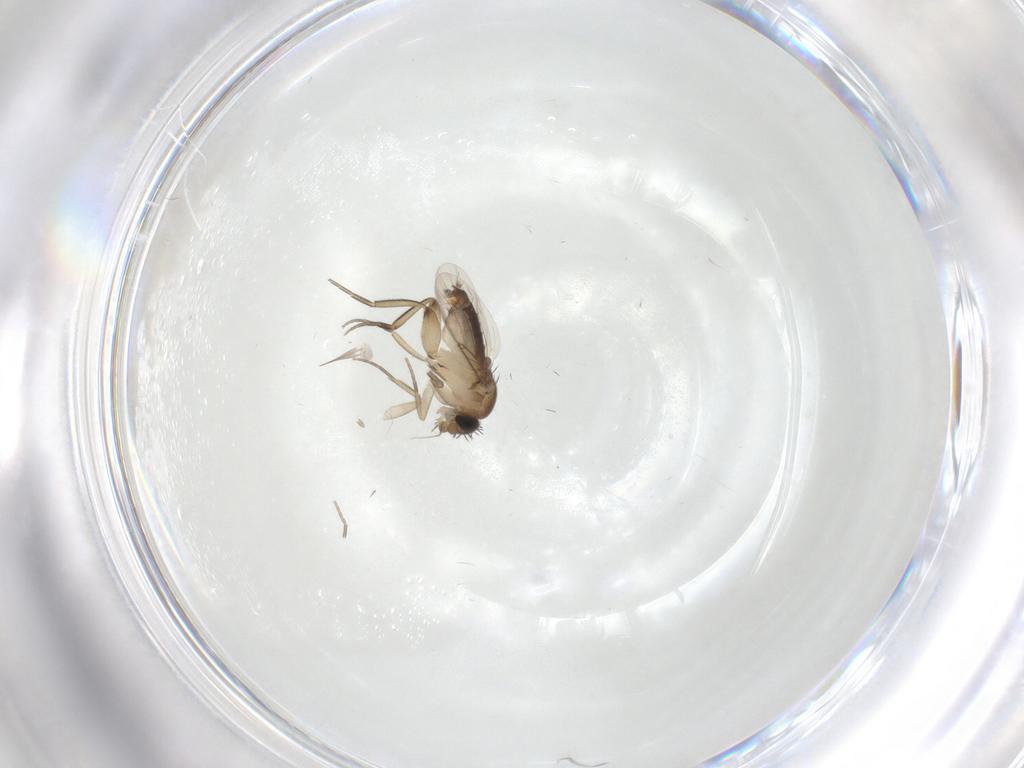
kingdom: Animalia
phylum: Arthropoda
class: Insecta
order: Diptera
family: Phoridae
